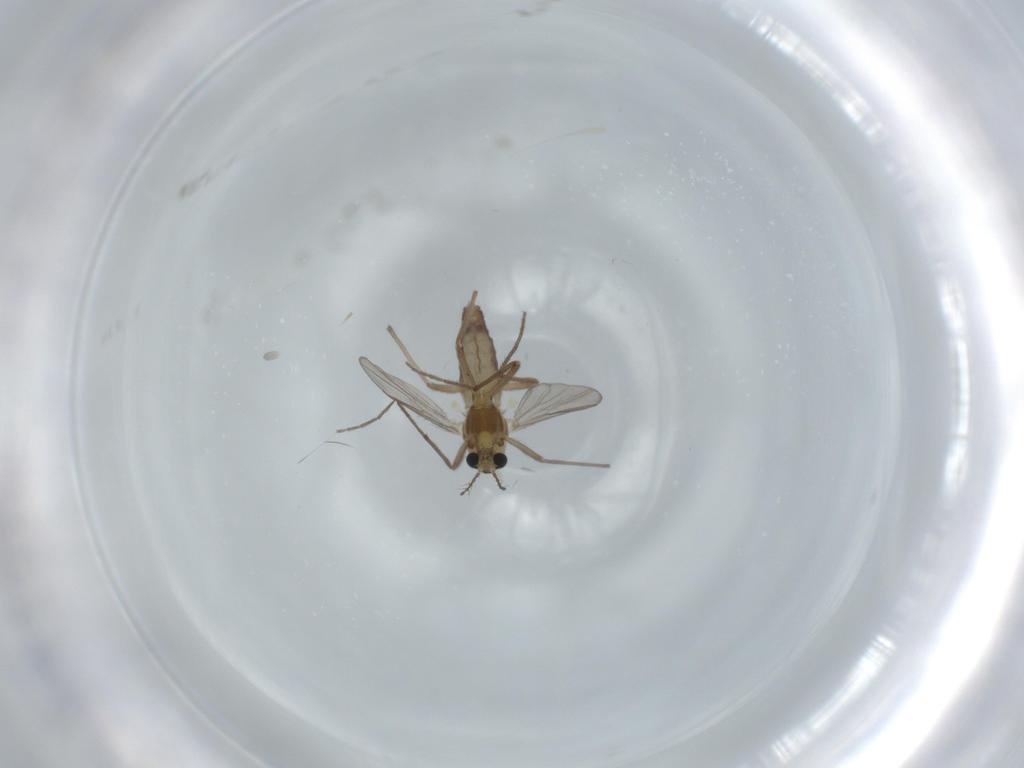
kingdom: Animalia
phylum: Arthropoda
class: Insecta
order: Diptera
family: Chironomidae
